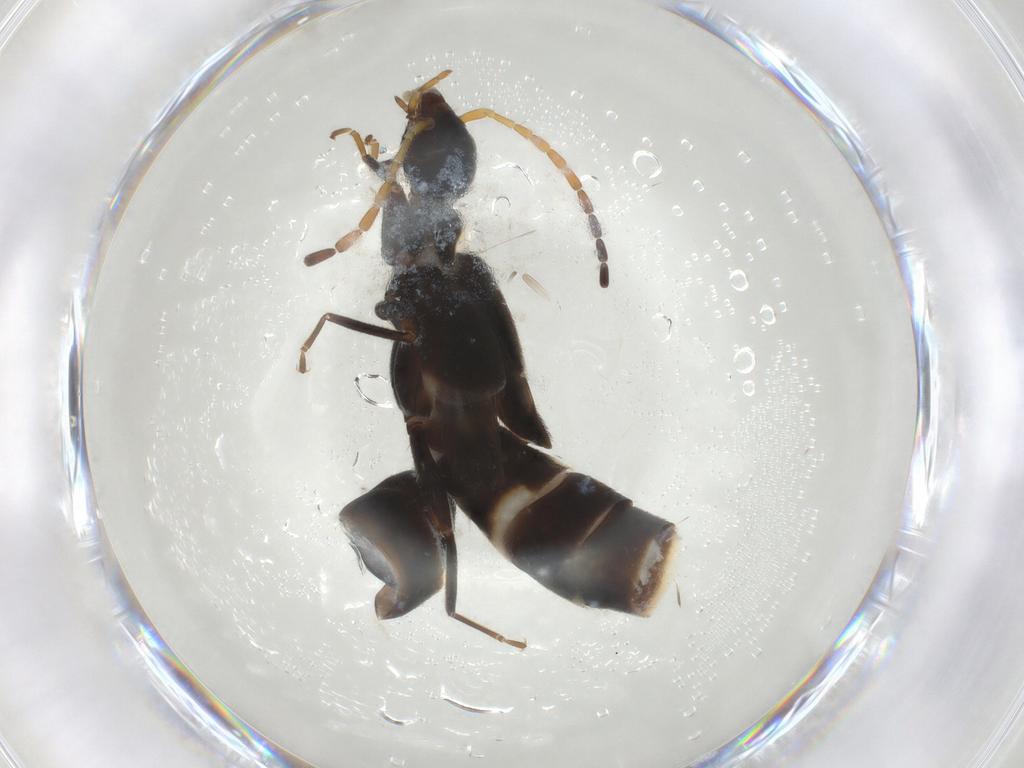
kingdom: Animalia
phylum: Arthropoda
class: Insecta
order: Dermaptera
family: Forficulidae
